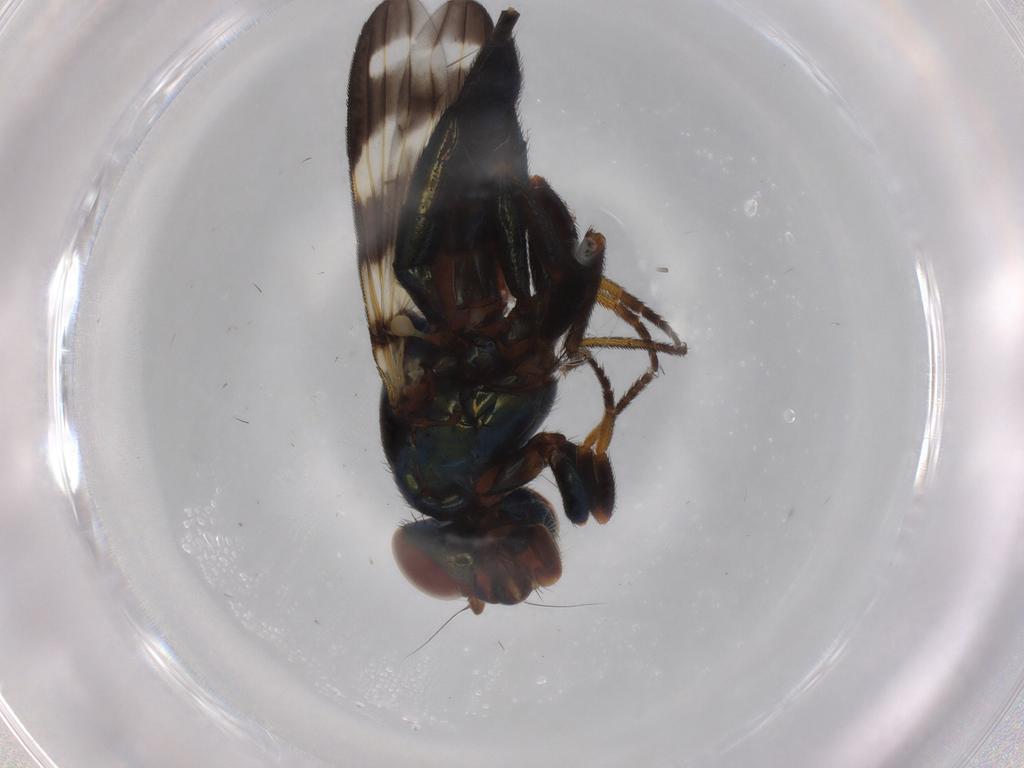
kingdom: Animalia
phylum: Arthropoda
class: Insecta
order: Diptera
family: Ulidiidae
